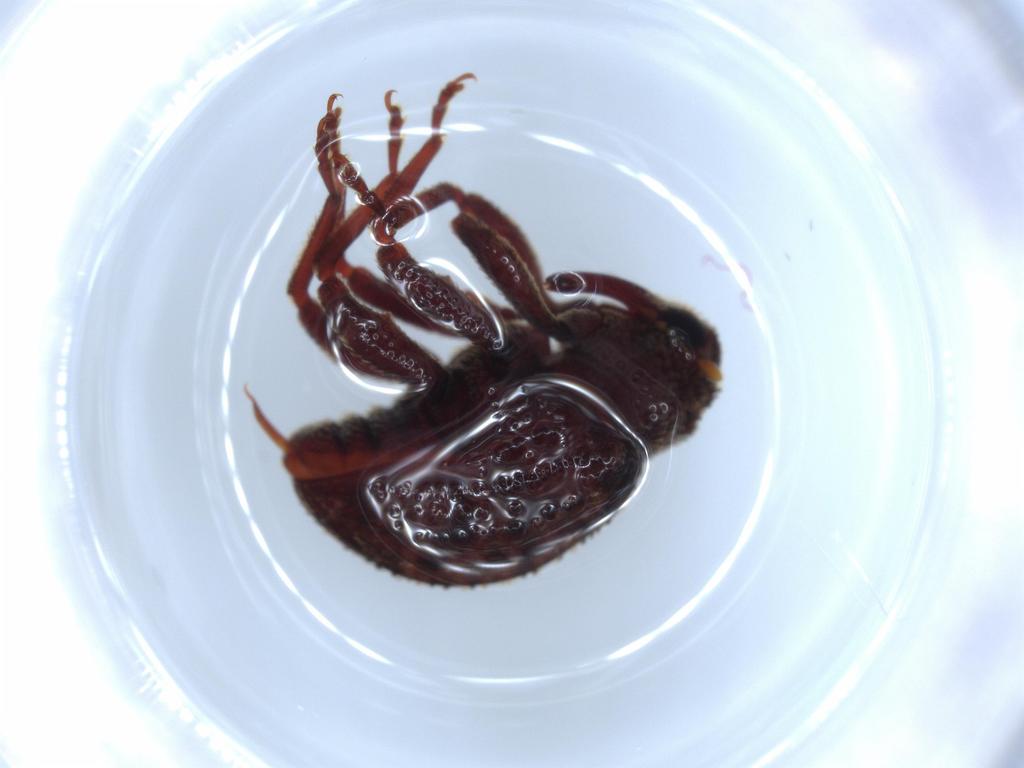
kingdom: Animalia
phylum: Arthropoda
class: Insecta
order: Coleoptera
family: Curculionidae
